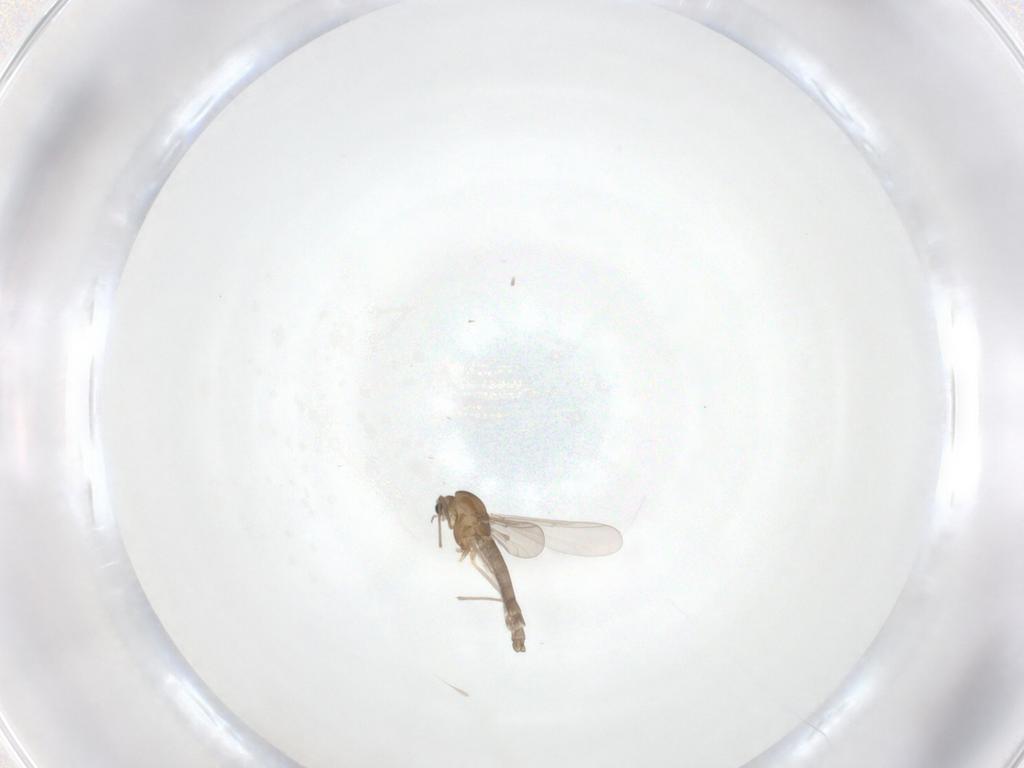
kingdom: Animalia
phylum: Arthropoda
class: Insecta
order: Diptera
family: Chironomidae
